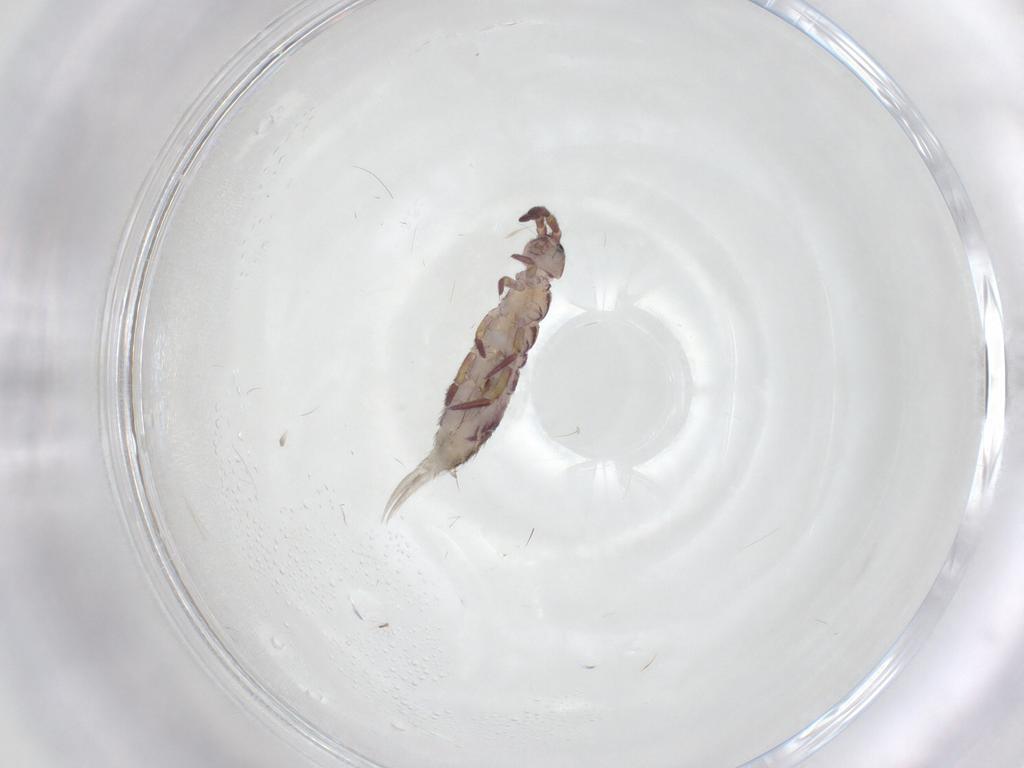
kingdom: Animalia
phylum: Arthropoda
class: Collembola
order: Entomobryomorpha
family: Isotomidae
